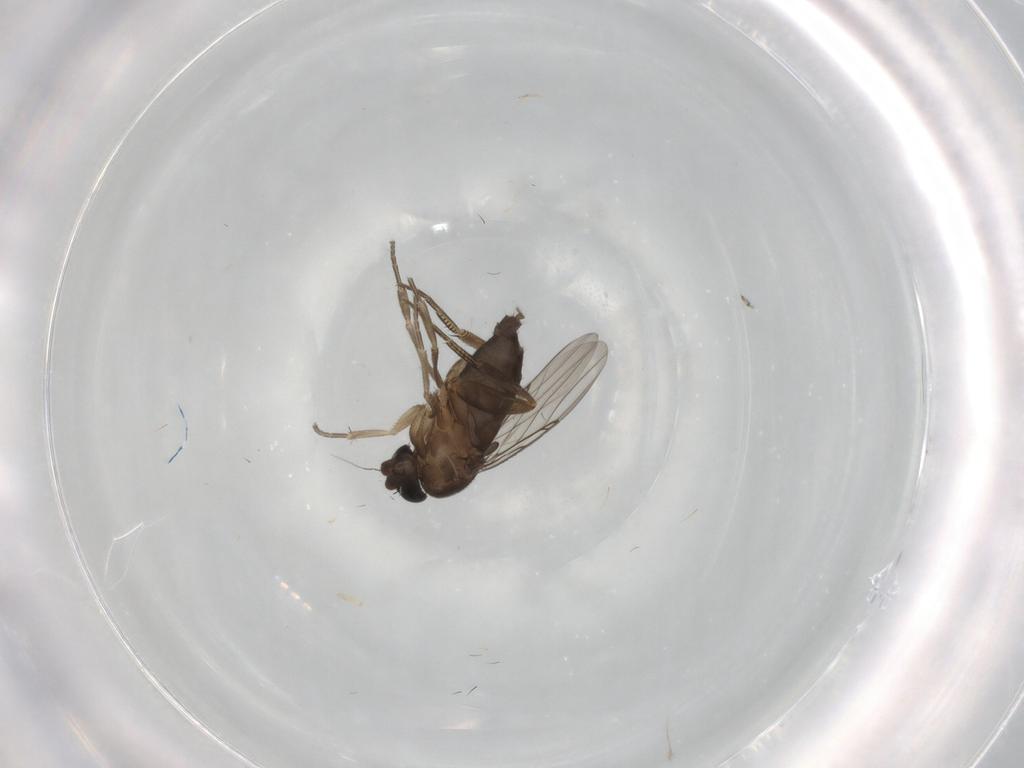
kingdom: Animalia
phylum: Arthropoda
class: Insecta
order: Diptera
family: Phoridae
